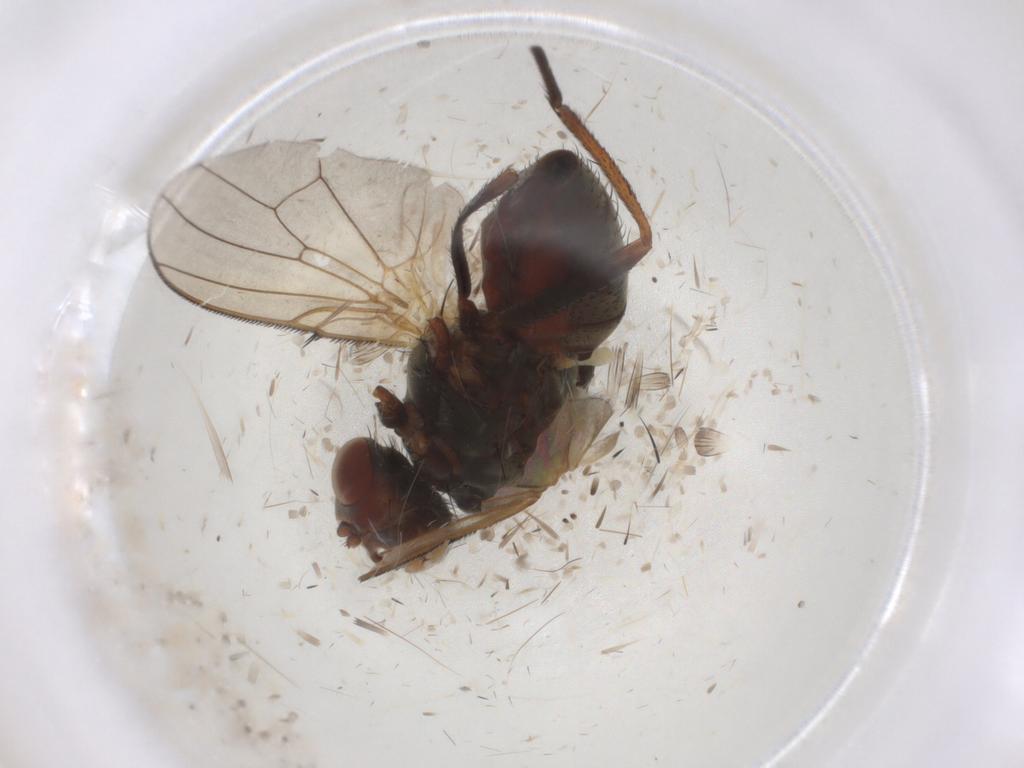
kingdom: Animalia
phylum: Arthropoda
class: Insecta
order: Diptera
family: Anthomyiidae
